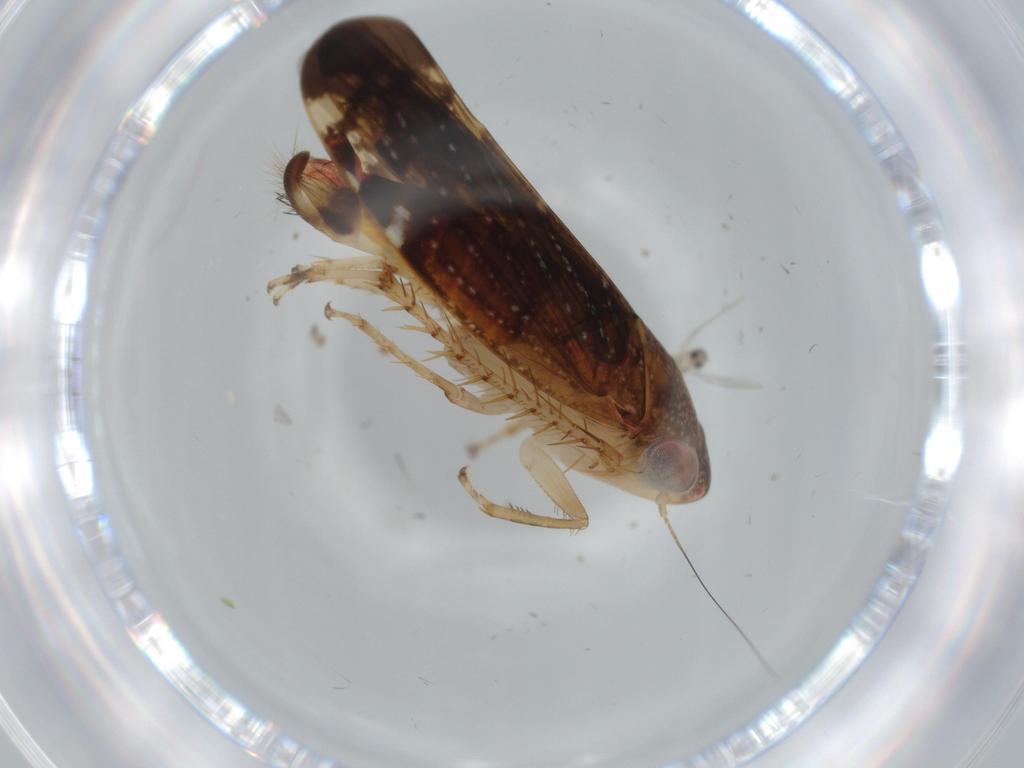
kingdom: Animalia
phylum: Arthropoda
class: Insecta
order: Hemiptera
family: Cicadellidae
